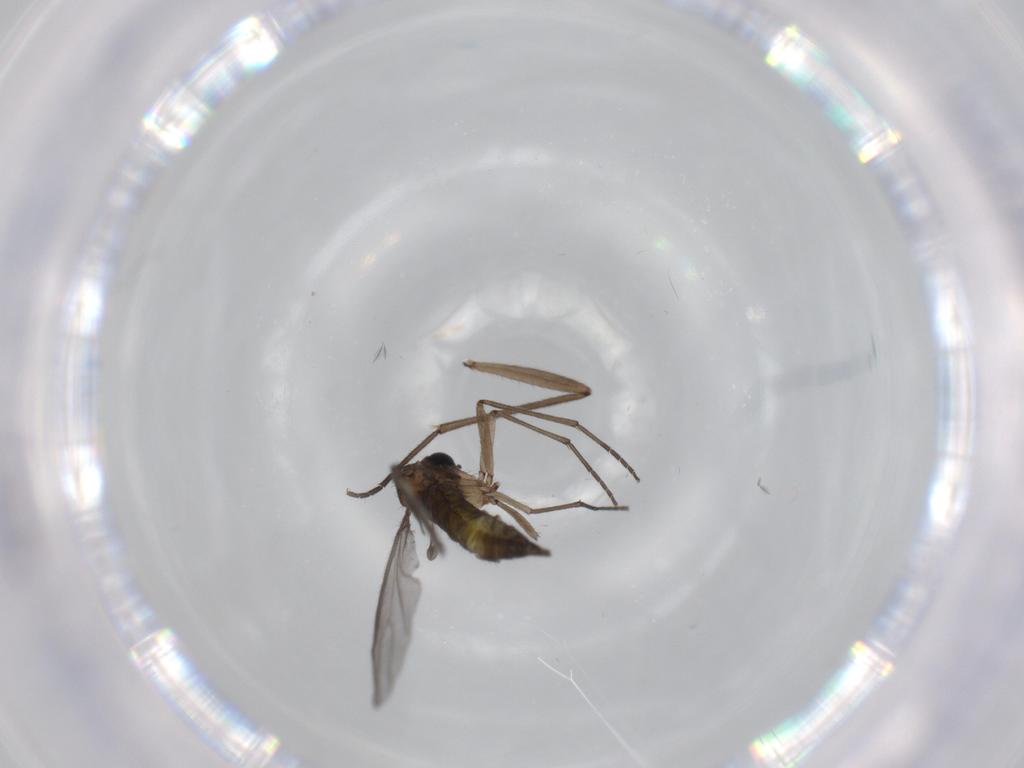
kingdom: Animalia
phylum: Arthropoda
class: Insecta
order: Diptera
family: Sciaridae
